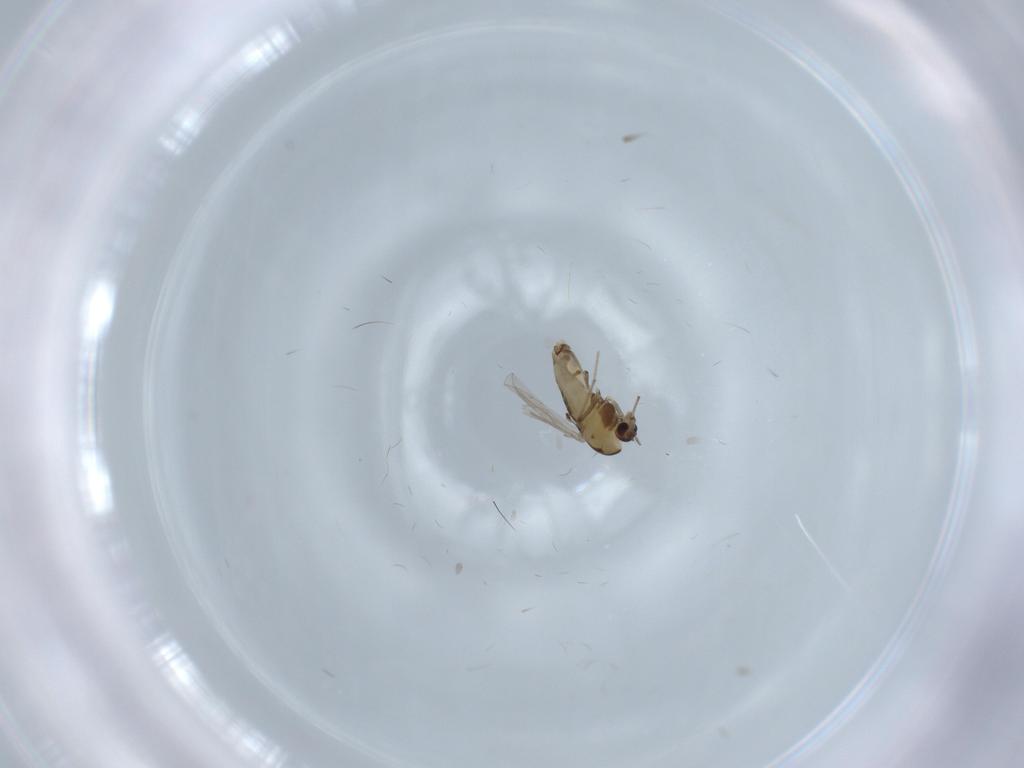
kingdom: Animalia
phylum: Arthropoda
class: Insecta
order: Diptera
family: Chironomidae
